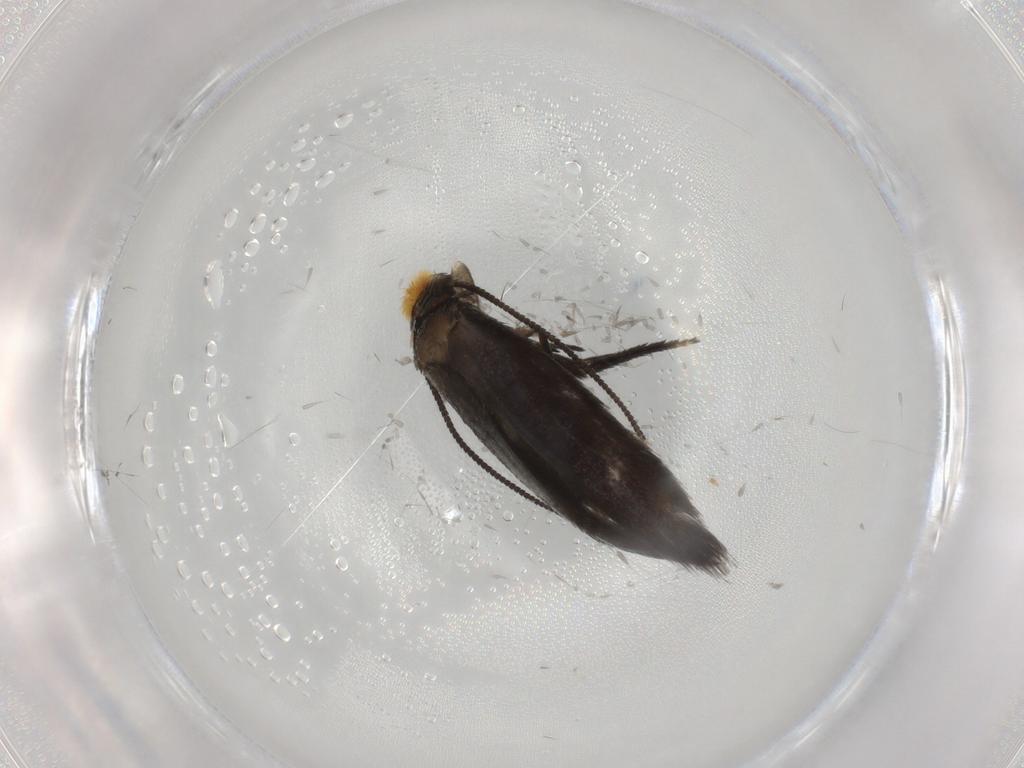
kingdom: Animalia
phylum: Arthropoda
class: Insecta
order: Lepidoptera
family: Nepticulidae
